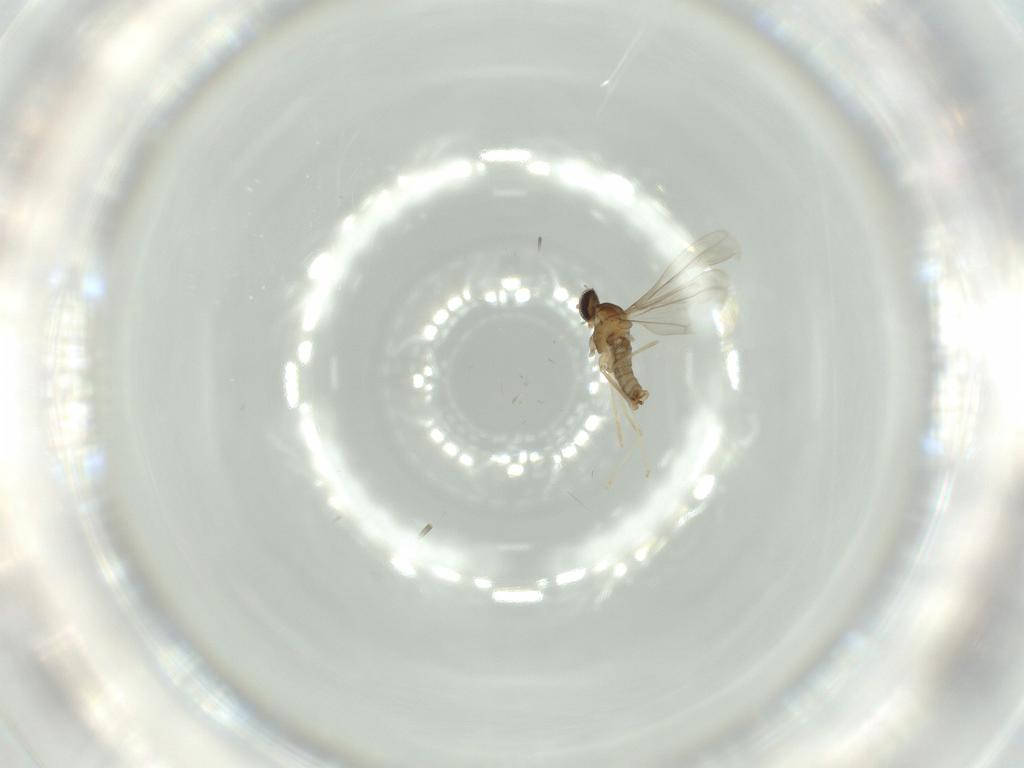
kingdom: Animalia
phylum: Arthropoda
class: Insecta
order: Diptera
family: Cecidomyiidae
